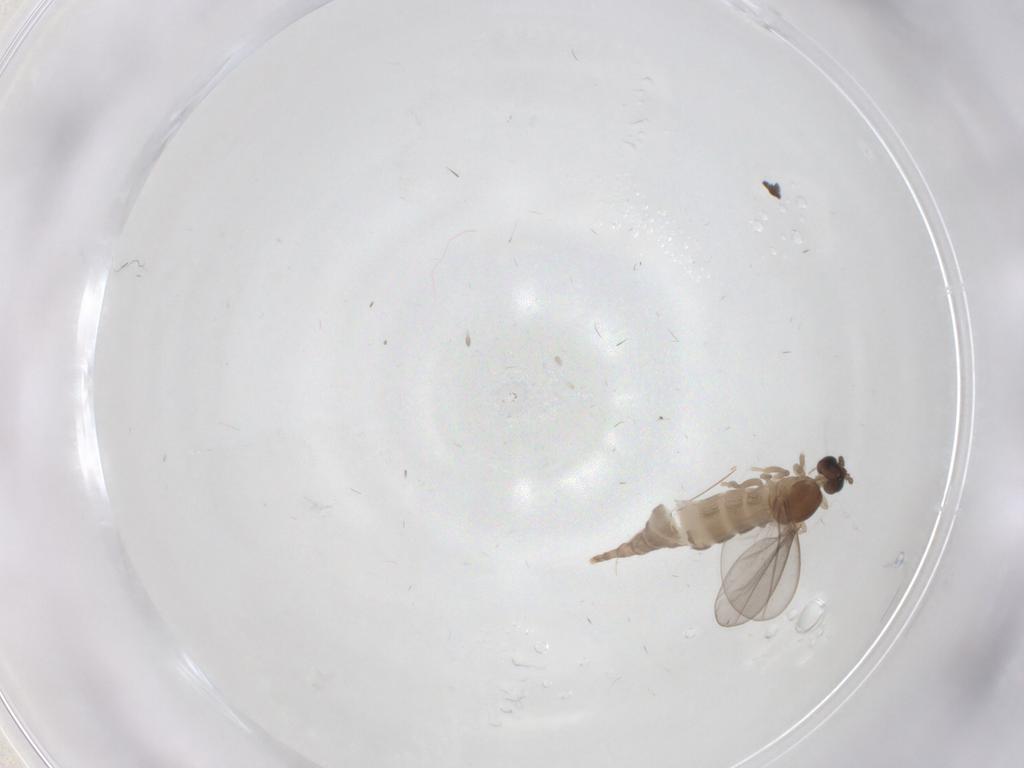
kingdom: Animalia
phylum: Arthropoda
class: Insecta
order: Diptera
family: Cecidomyiidae
